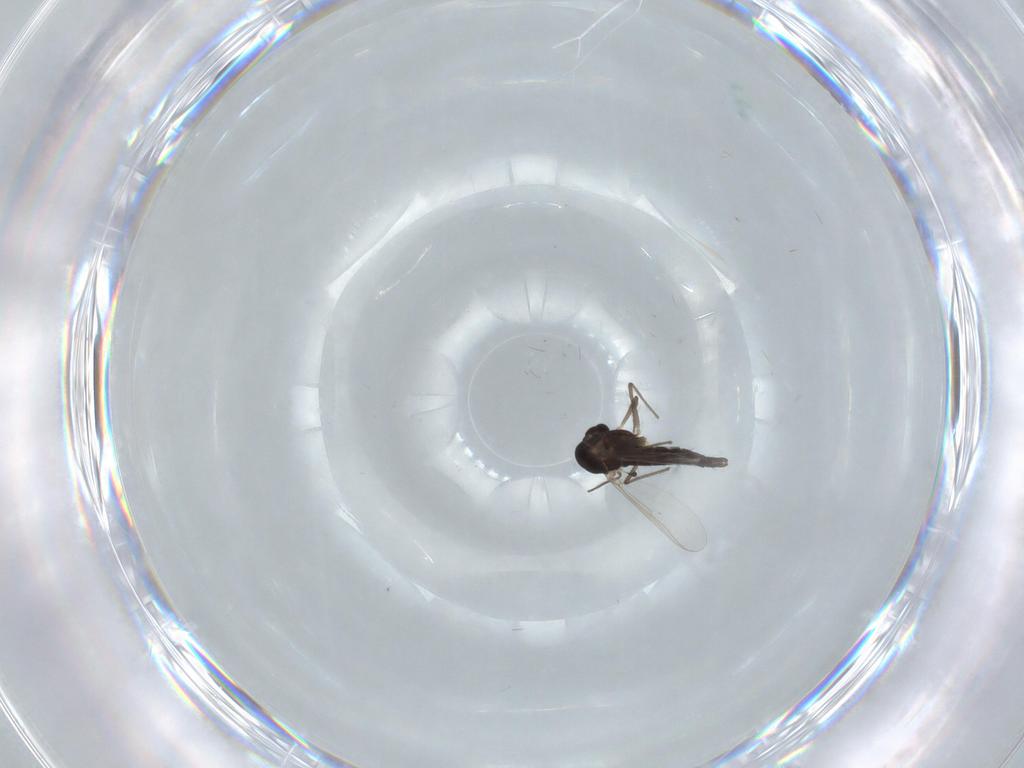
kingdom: Animalia
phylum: Arthropoda
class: Insecta
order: Diptera
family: Chironomidae
